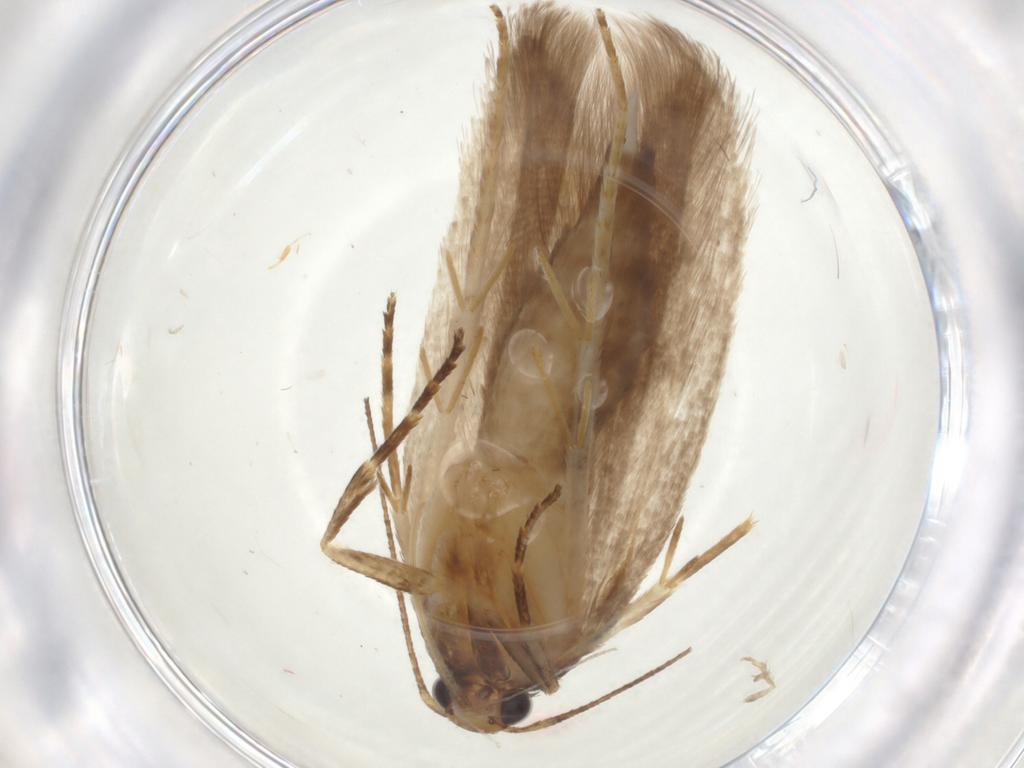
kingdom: Animalia
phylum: Arthropoda
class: Insecta
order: Lepidoptera
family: Gelechiidae
